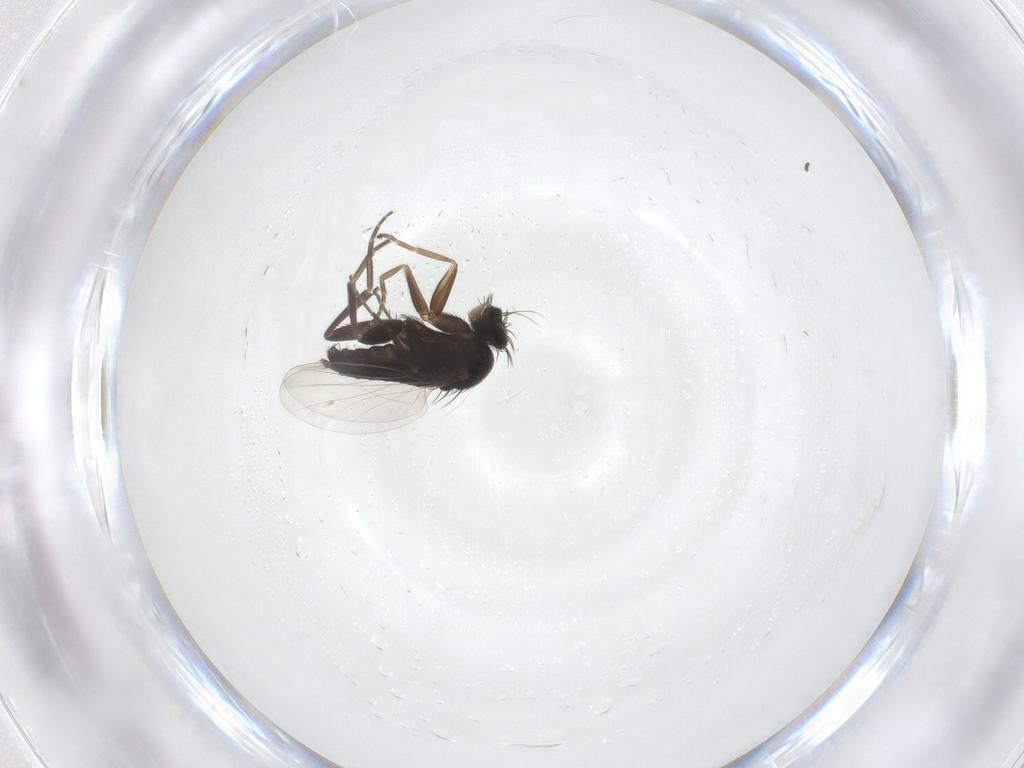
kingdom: Animalia
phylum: Arthropoda
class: Insecta
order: Diptera
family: Phoridae
